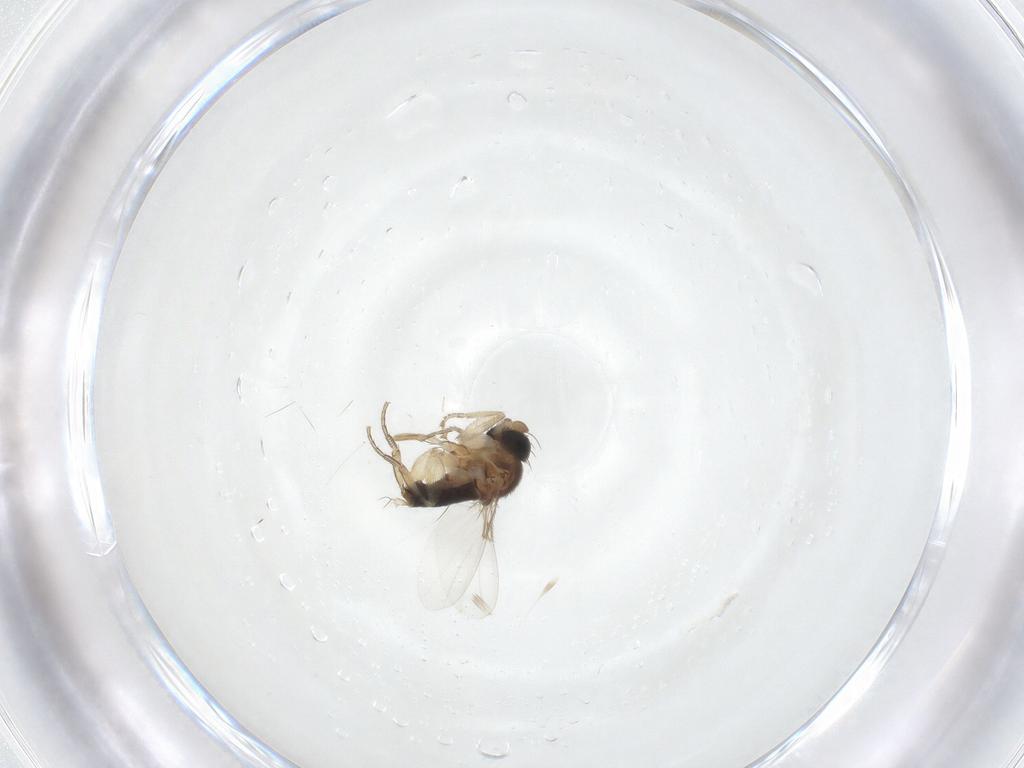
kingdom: Animalia
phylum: Arthropoda
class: Insecta
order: Diptera
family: Phoridae
